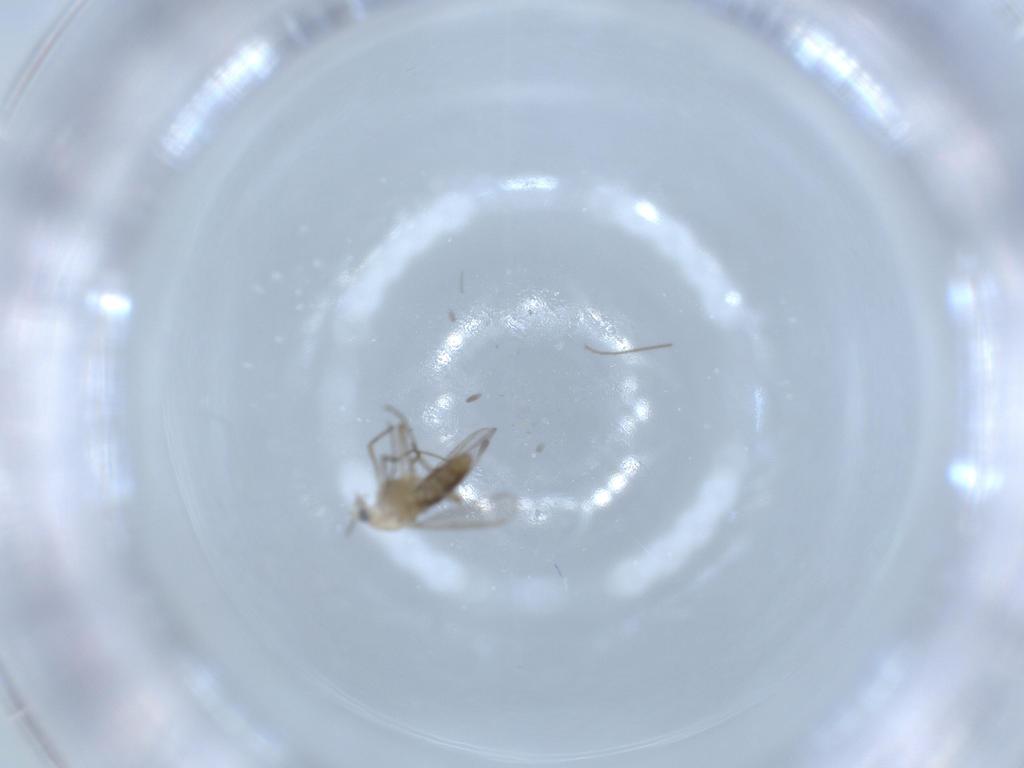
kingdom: Animalia
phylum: Arthropoda
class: Insecta
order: Diptera
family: Chironomidae
